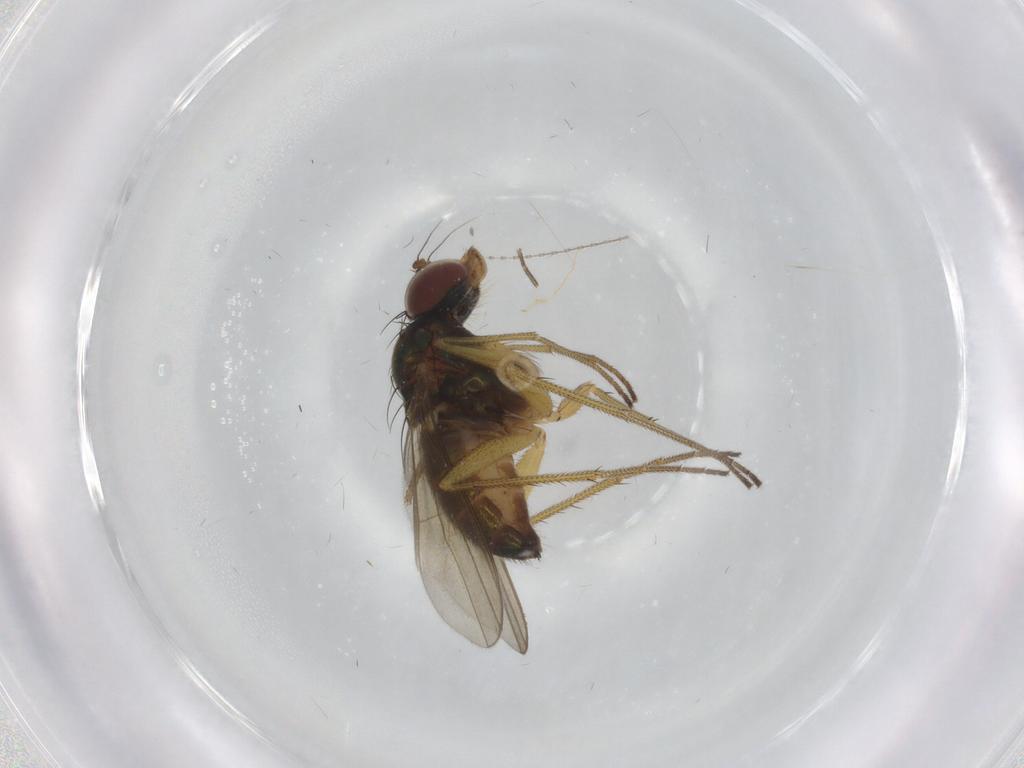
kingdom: Animalia
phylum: Arthropoda
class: Insecta
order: Diptera
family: Dolichopodidae
